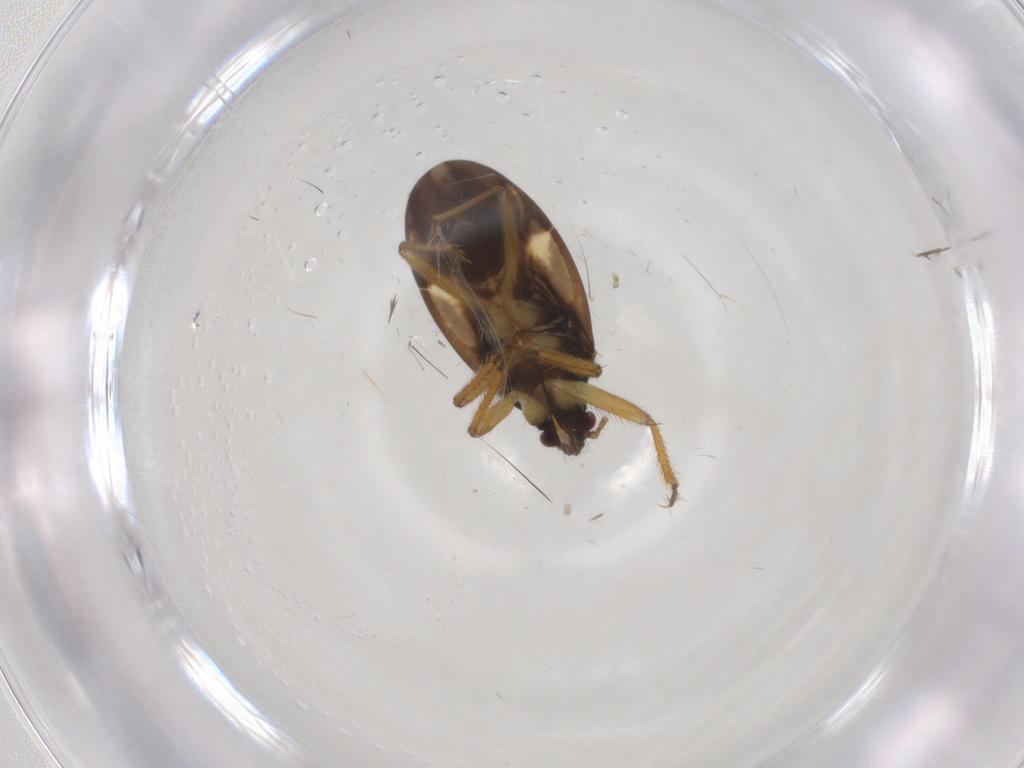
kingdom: Animalia
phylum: Arthropoda
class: Insecta
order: Hemiptera
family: Ceratocombidae
